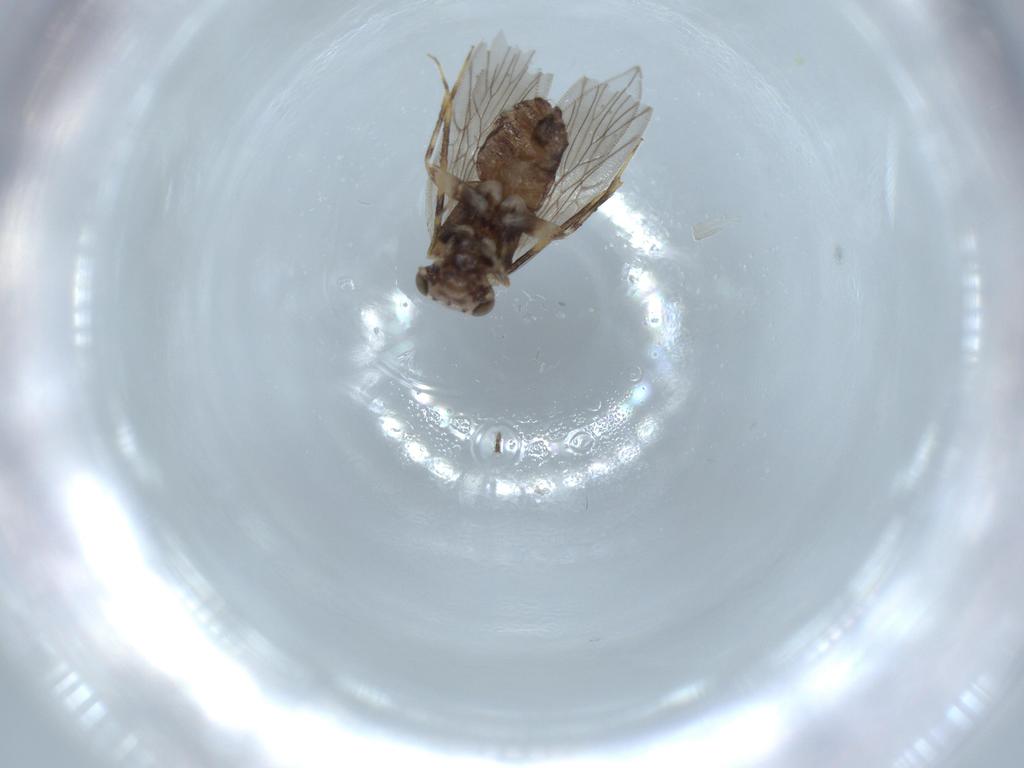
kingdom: Animalia
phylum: Arthropoda
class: Insecta
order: Psocodea
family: Lepidopsocidae
